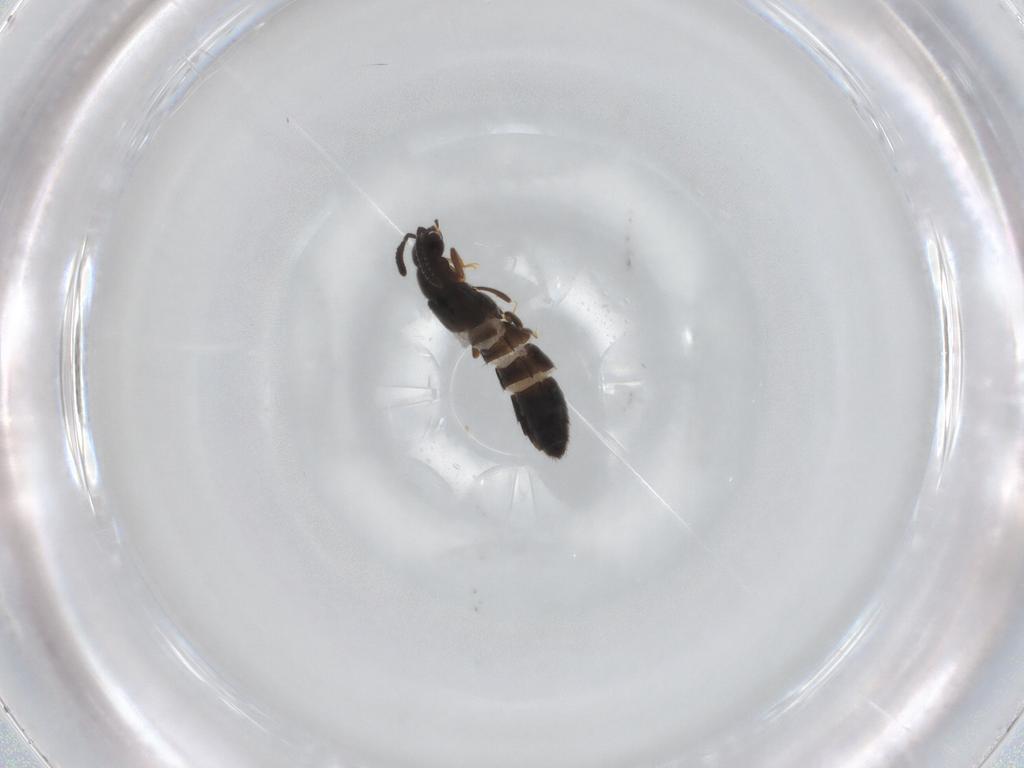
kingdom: Animalia
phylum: Arthropoda
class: Insecta
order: Coleoptera
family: Staphylinidae
